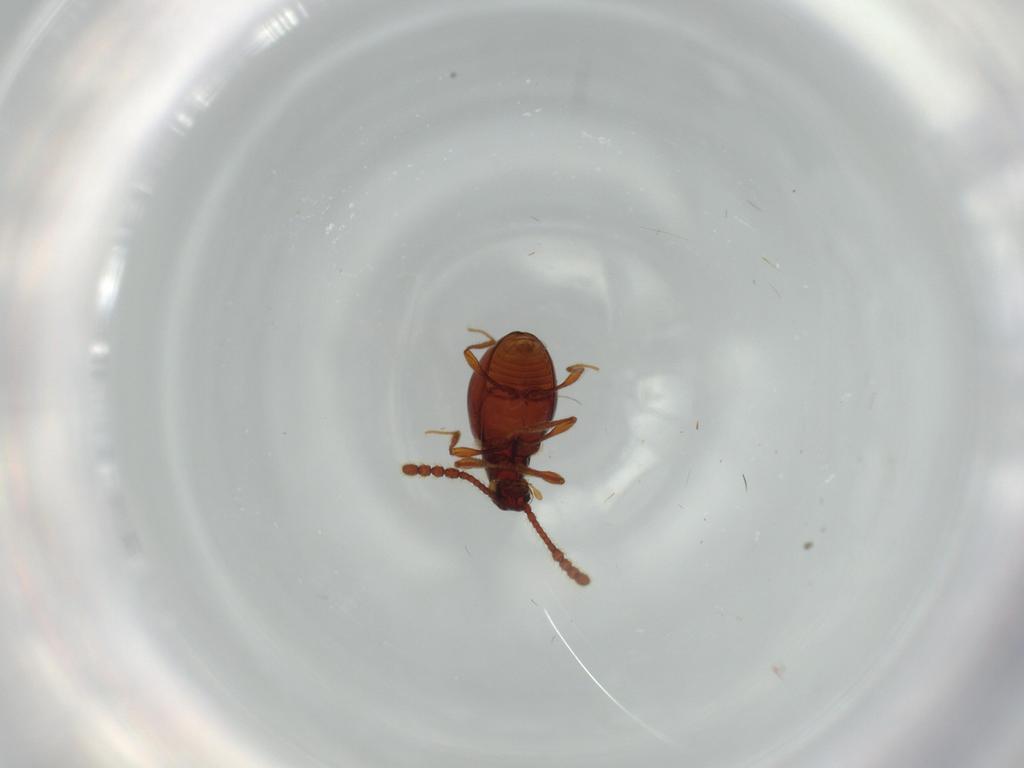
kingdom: Animalia
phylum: Arthropoda
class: Insecta
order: Coleoptera
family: Staphylinidae
